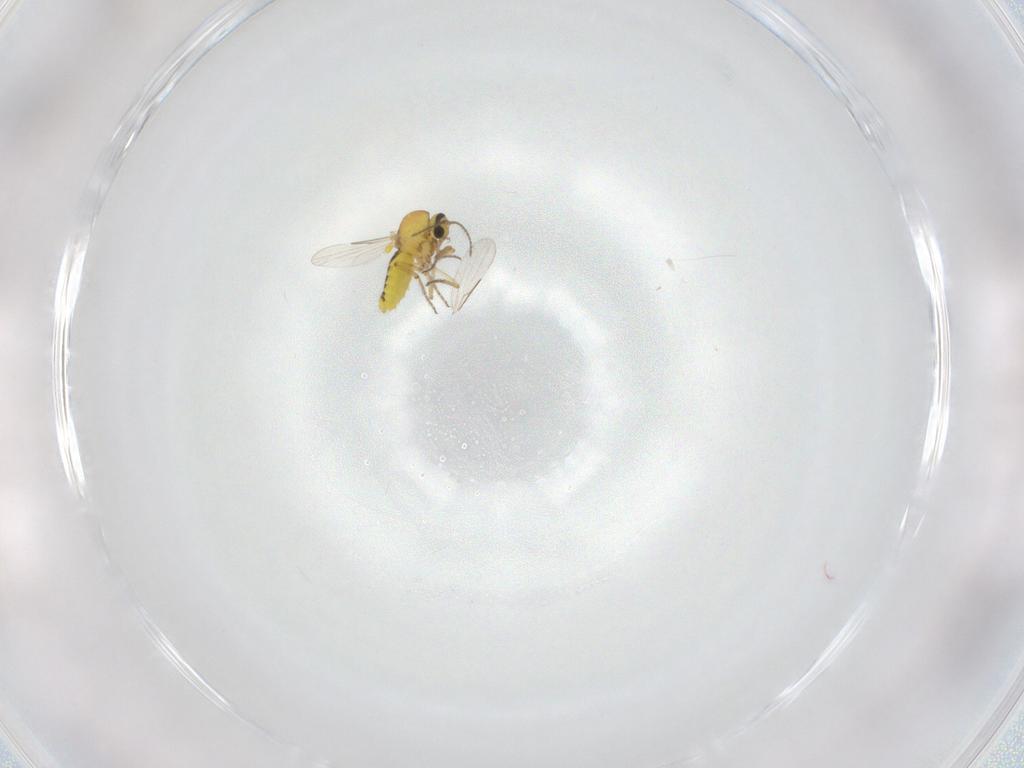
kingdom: Animalia
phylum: Arthropoda
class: Insecta
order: Diptera
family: Ceratopogonidae
